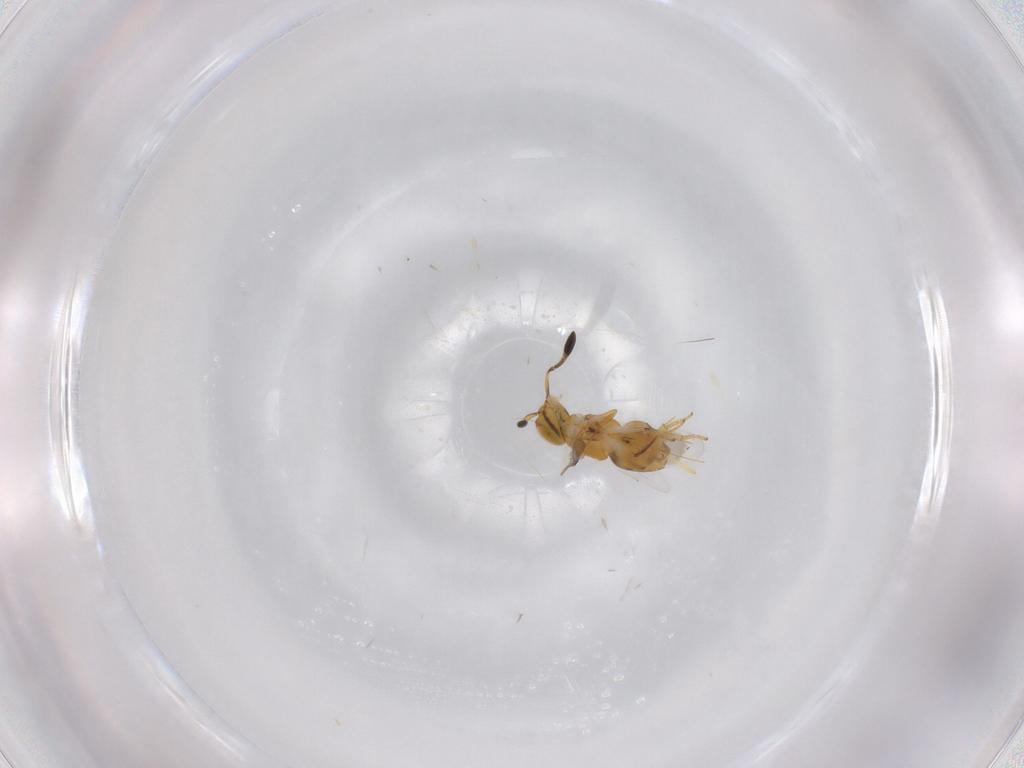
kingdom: Animalia
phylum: Arthropoda
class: Insecta
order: Hymenoptera
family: Encyrtidae
